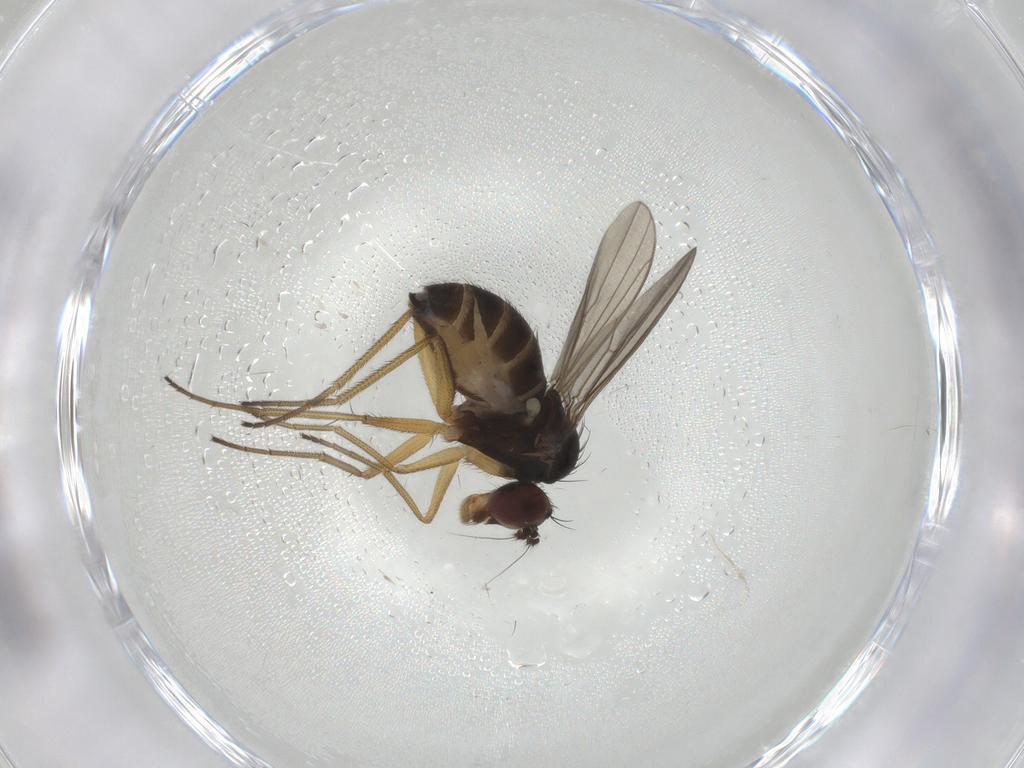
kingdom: Animalia
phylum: Arthropoda
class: Insecta
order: Diptera
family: Dolichopodidae
